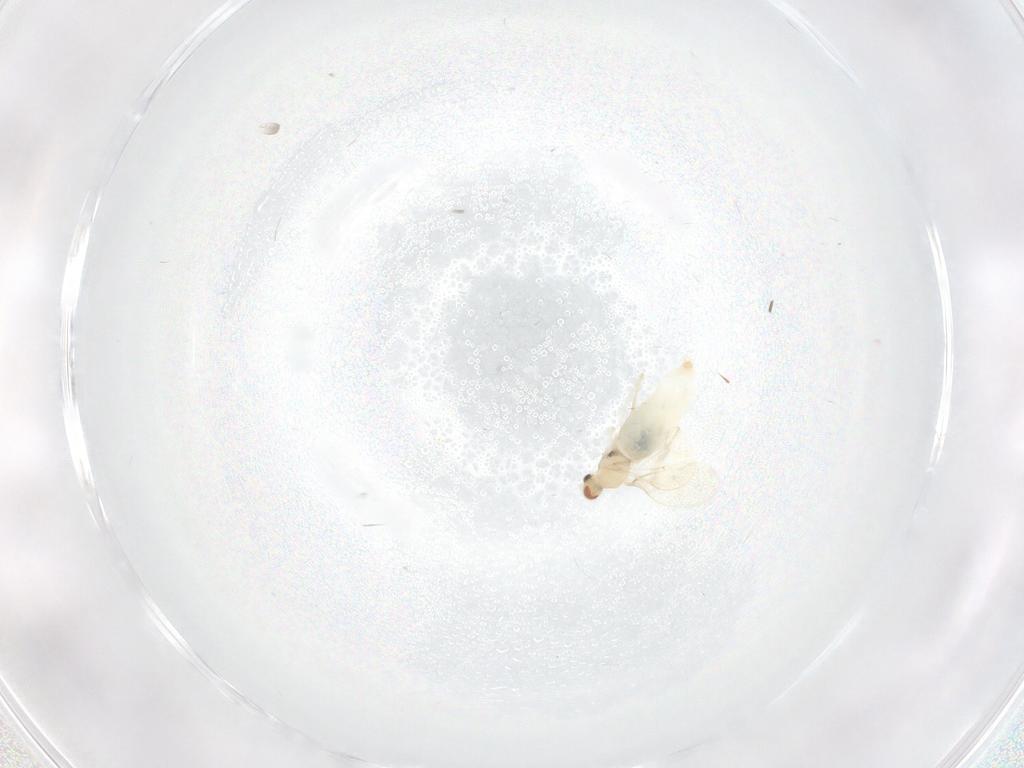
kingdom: Animalia
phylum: Arthropoda
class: Insecta
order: Diptera
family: Cecidomyiidae
